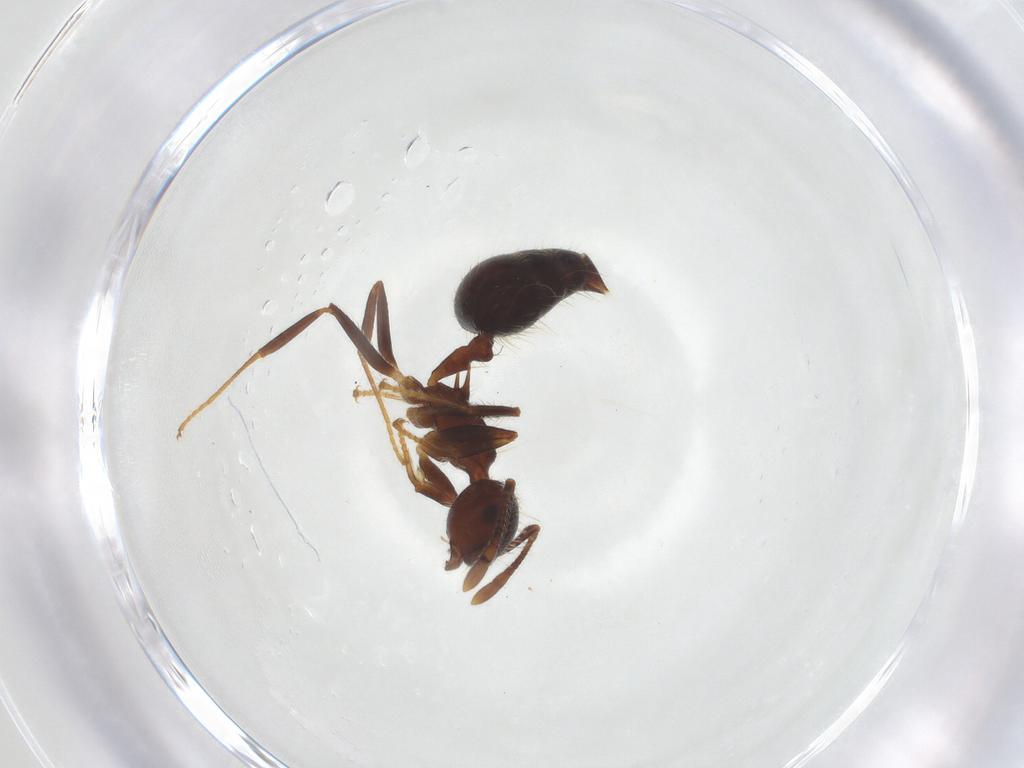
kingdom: Animalia
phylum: Arthropoda
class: Insecta
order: Hymenoptera
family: Formicidae
